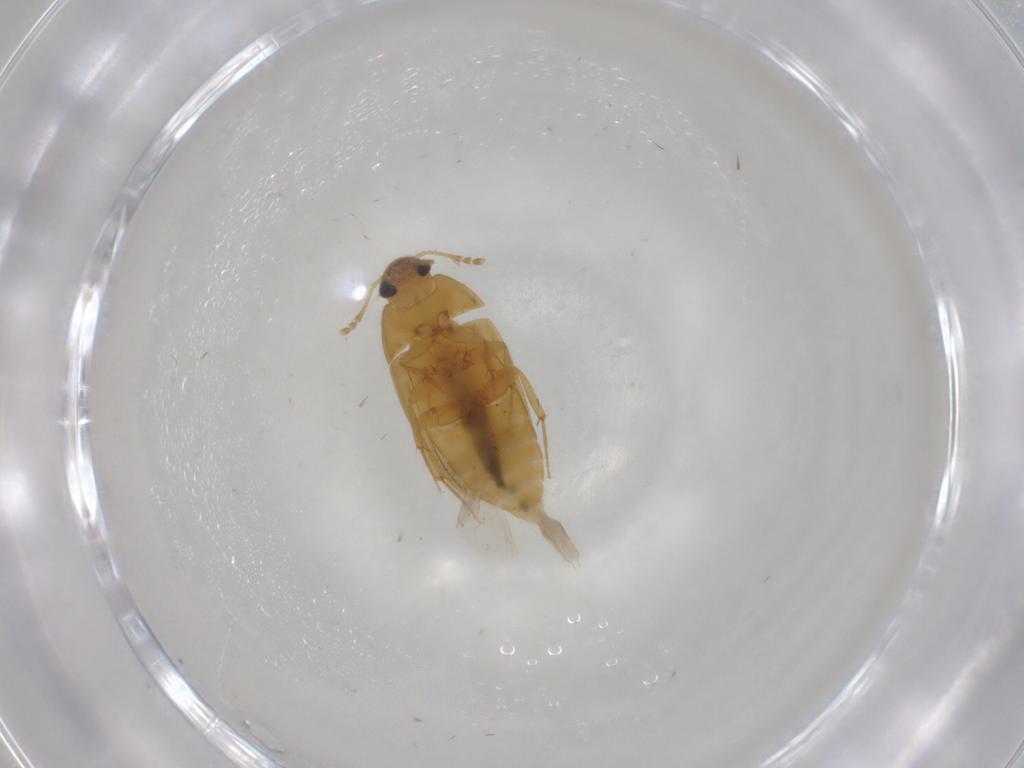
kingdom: Animalia
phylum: Arthropoda
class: Insecta
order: Coleoptera
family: Mycetophagidae
